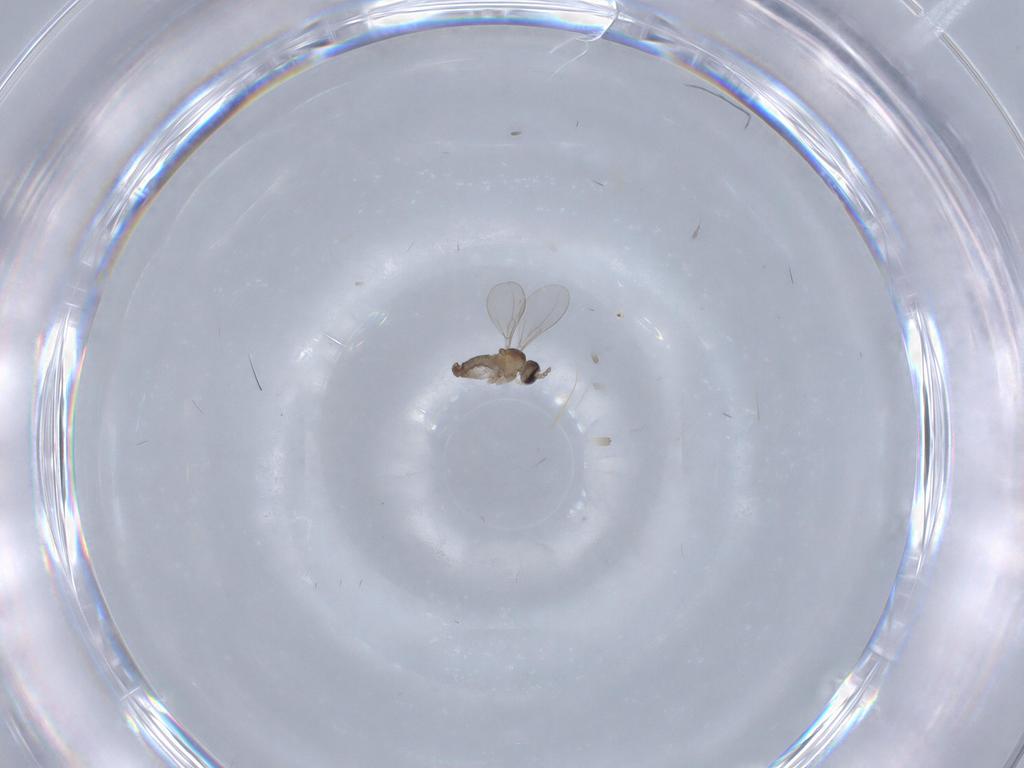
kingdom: Animalia
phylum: Arthropoda
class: Insecta
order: Diptera
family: Cecidomyiidae
